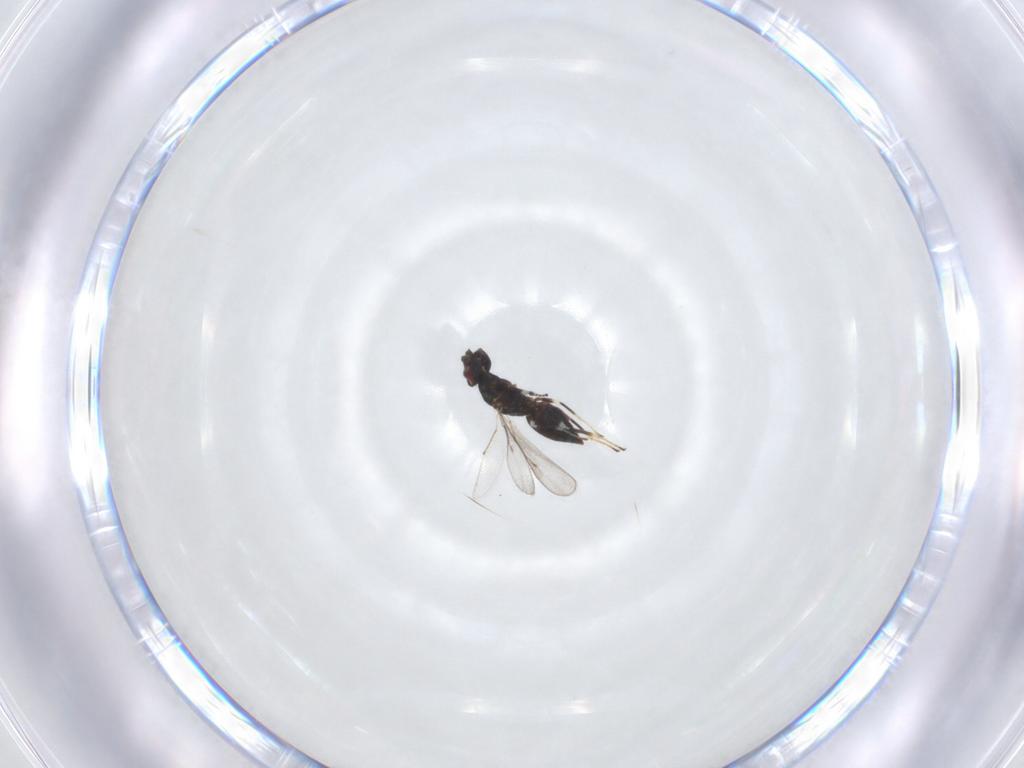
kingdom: Animalia
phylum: Arthropoda
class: Insecta
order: Hymenoptera
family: Eulophidae
